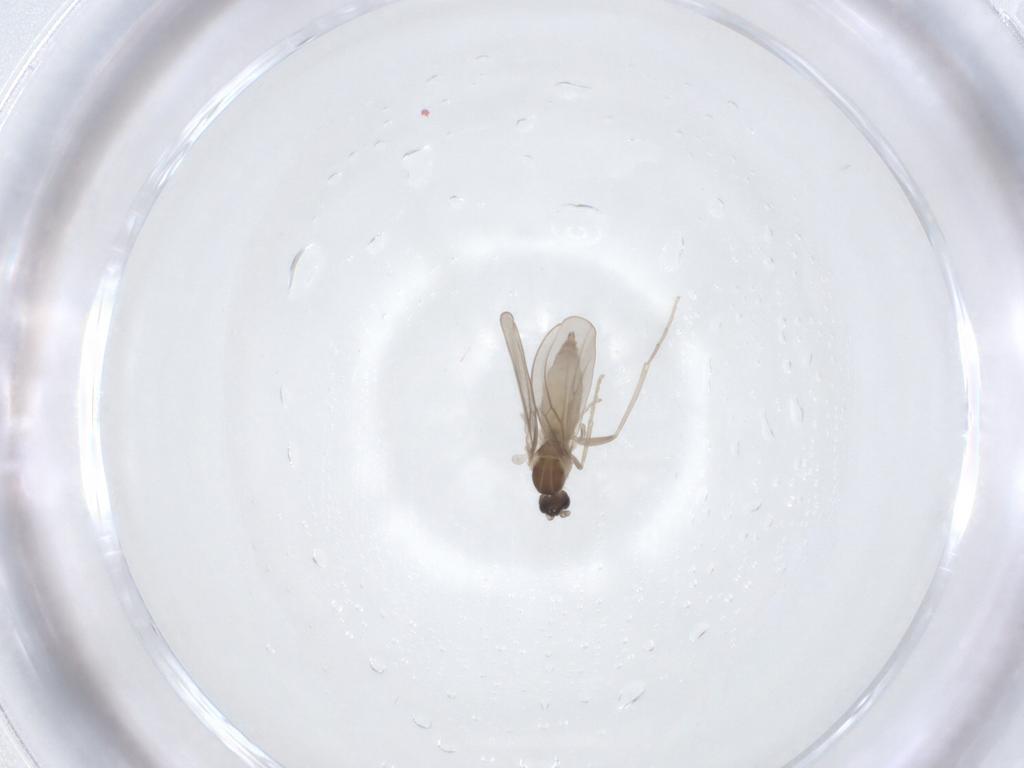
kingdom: Animalia
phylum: Arthropoda
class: Insecta
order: Diptera
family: Cecidomyiidae
